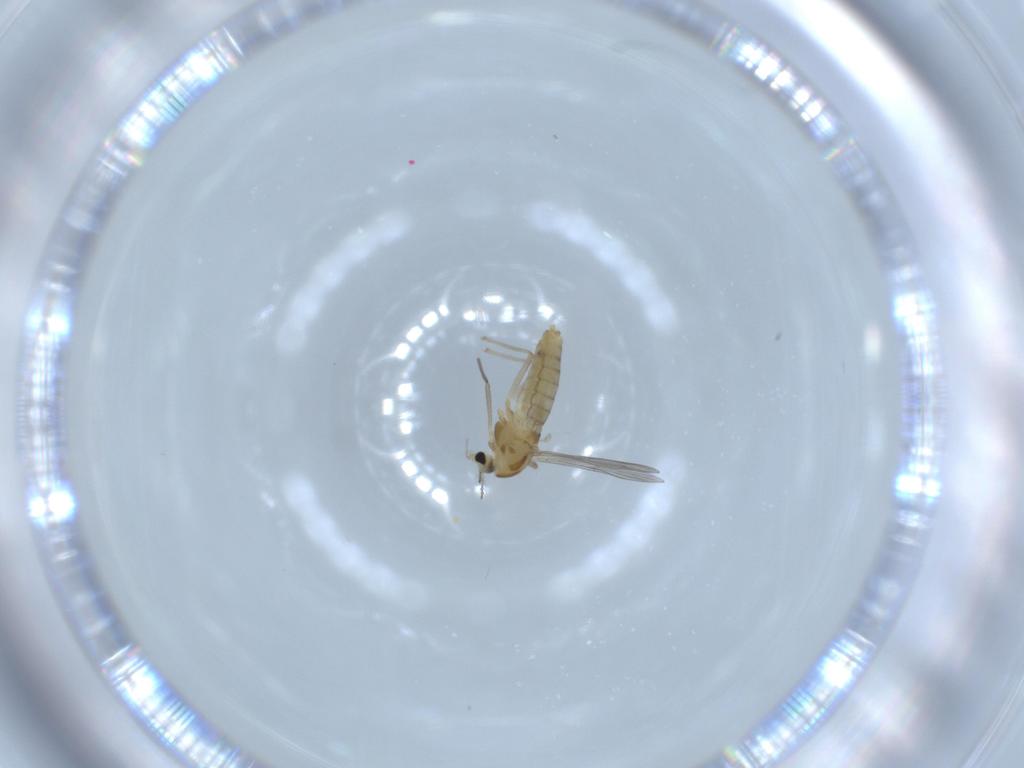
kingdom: Animalia
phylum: Arthropoda
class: Insecta
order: Diptera
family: Chironomidae
